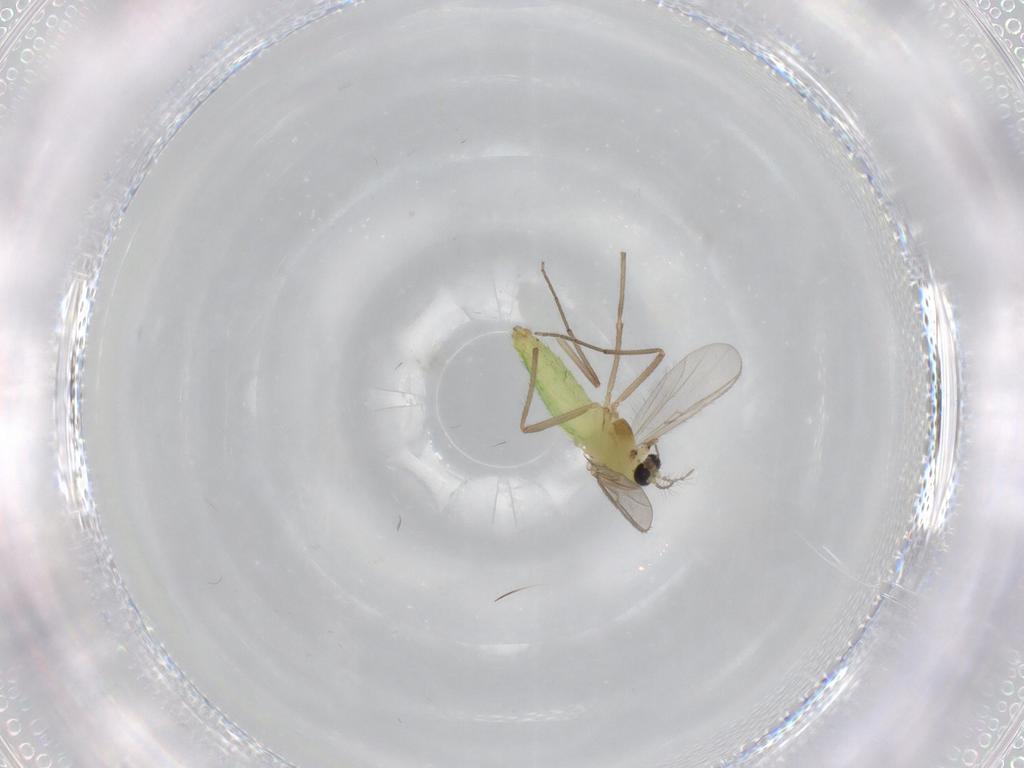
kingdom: Animalia
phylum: Arthropoda
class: Insecta
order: Diptera
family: Chironomidae
